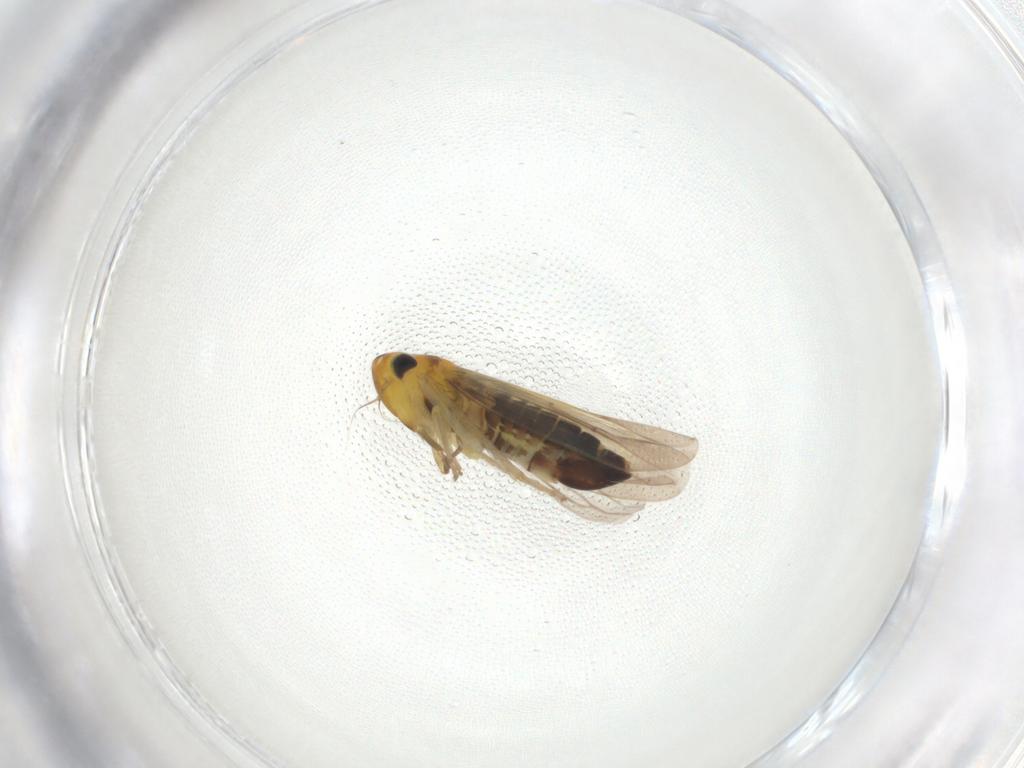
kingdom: Animalia
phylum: Arthropoda
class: Insecta
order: Hemiptera
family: Cicadellidae
